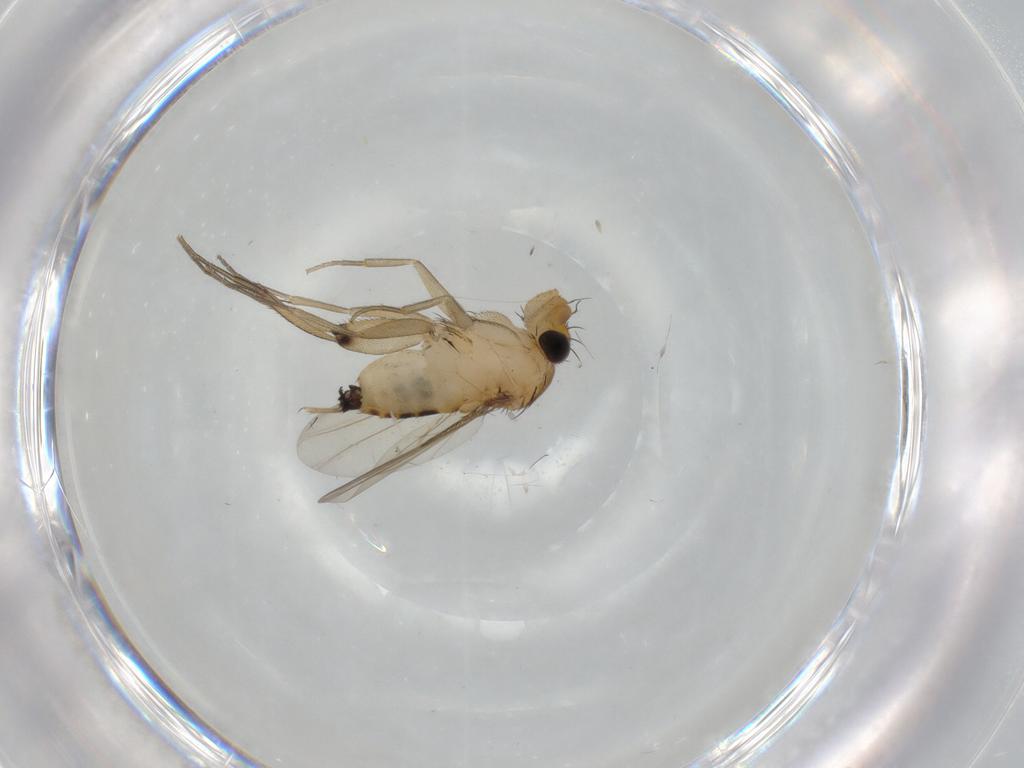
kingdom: Animalia
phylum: Arthropoda
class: Insecta
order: Diptera
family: Phoridae
